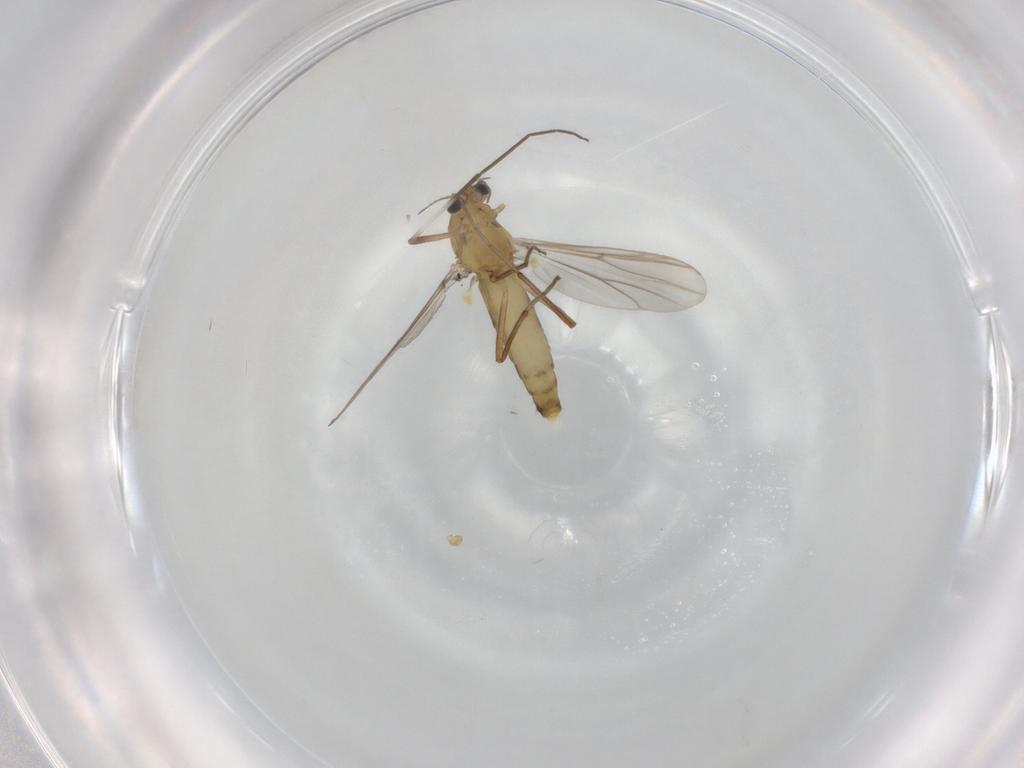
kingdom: Animalia
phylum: Arthropoda
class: Insecta
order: Diptera
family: Chironomidae
